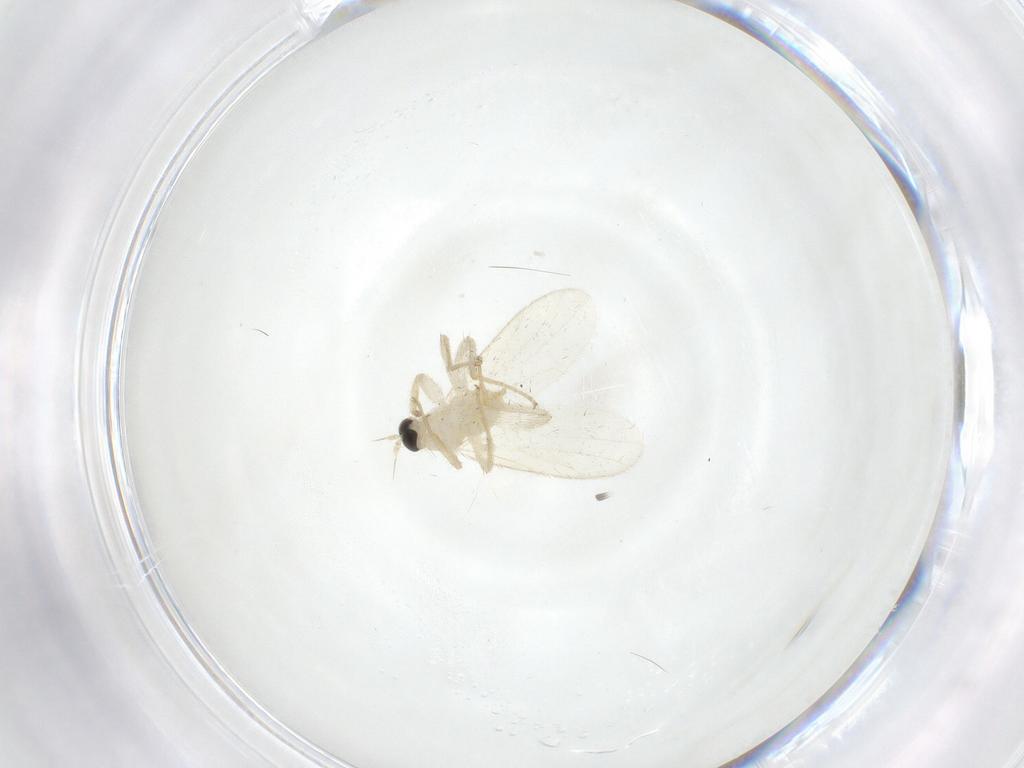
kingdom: Animalia
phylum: Arthropoda
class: Insecta
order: Diptera
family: Hybotidae
